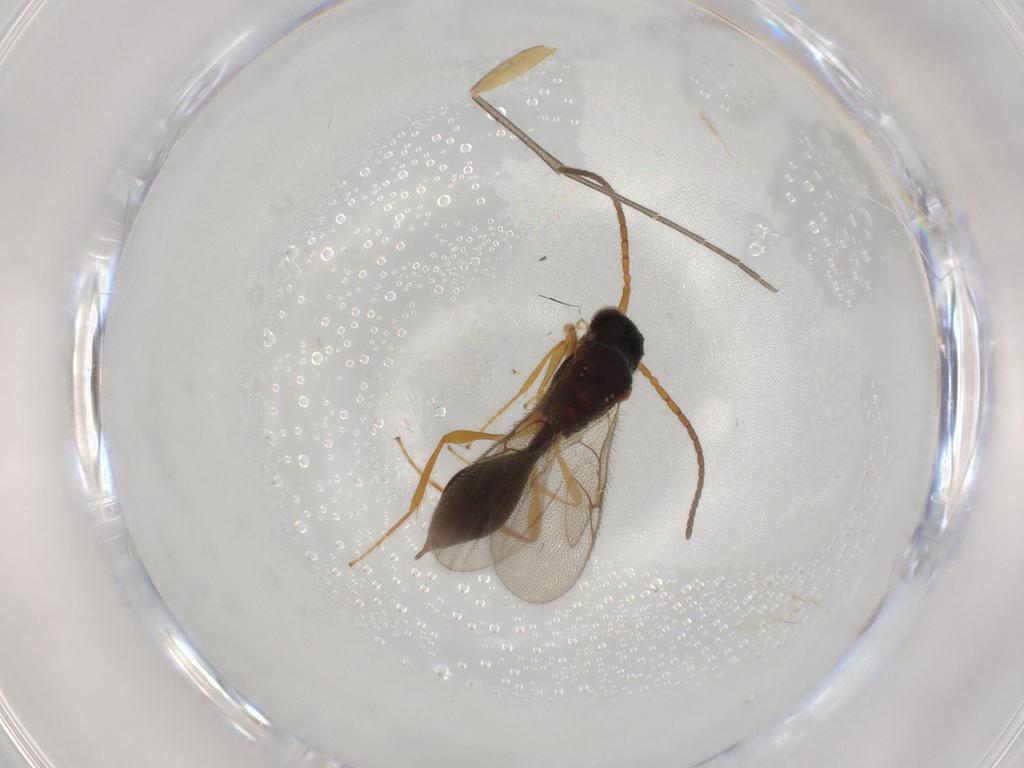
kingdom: Animalia
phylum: Arthropoda
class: Insecta
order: Hymenoptera
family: Diapriidae
